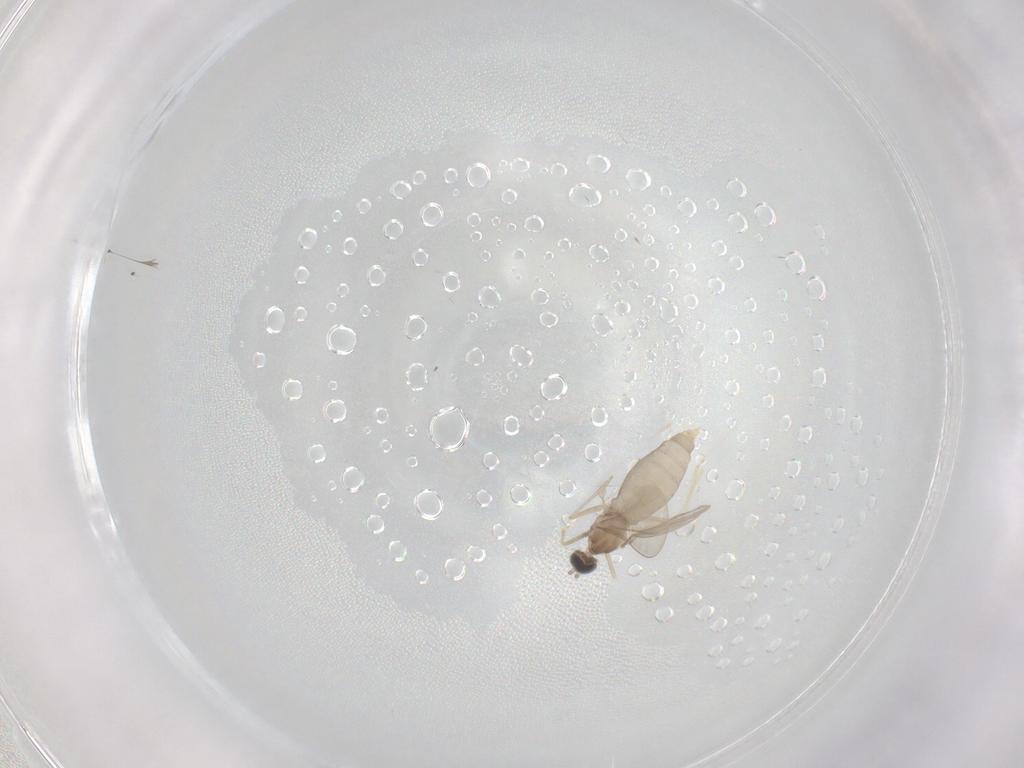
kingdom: Animalia
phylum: Arthropoda
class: Insecta
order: Diptera
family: Cecidomyiidae
